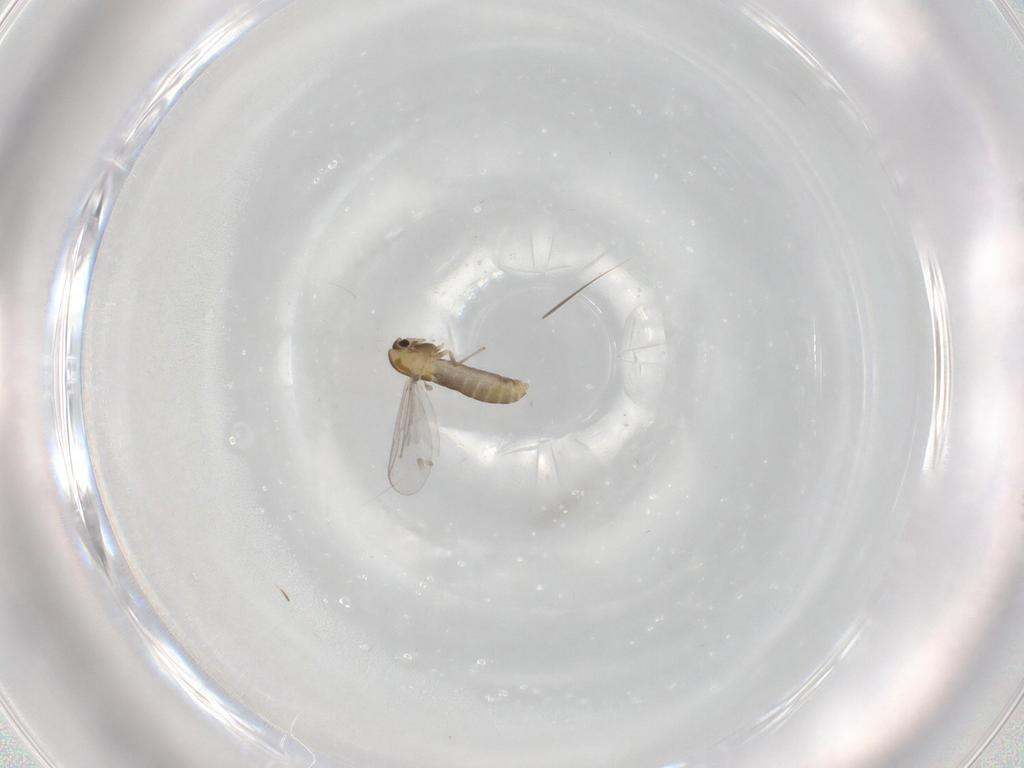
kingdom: Animalia
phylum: Arthropoda
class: Insecta
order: Diptera
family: Chironomidae
